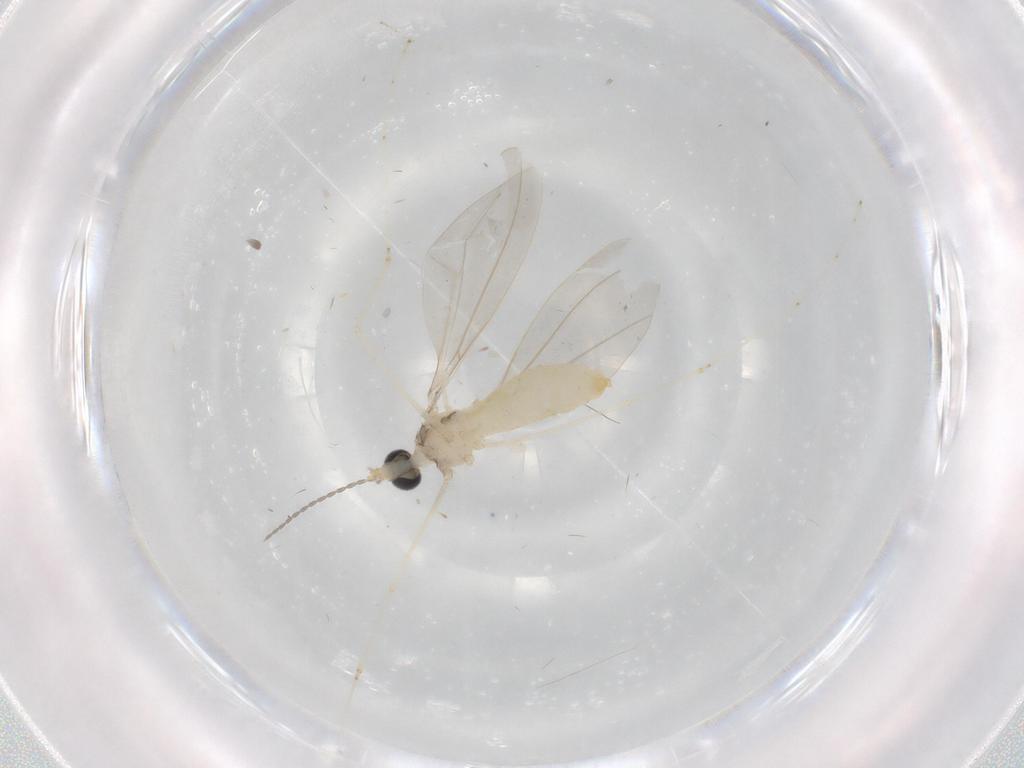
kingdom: Animalia
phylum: Arthropoda
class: Insecta
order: Diptera
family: Cecidomyiidae
